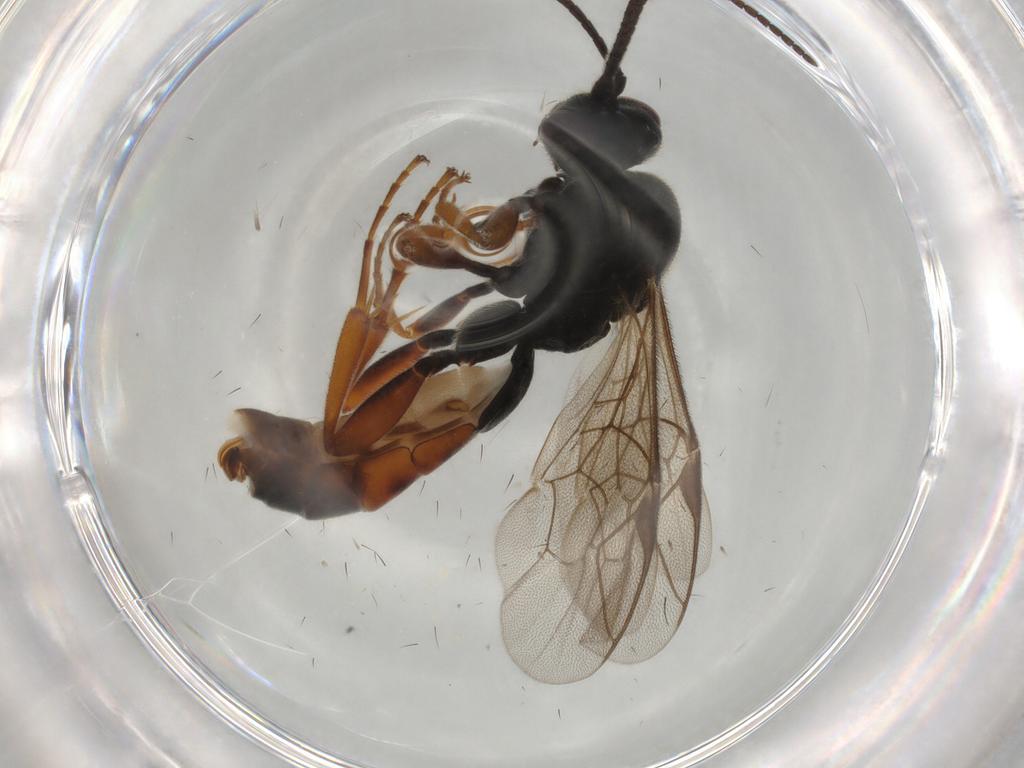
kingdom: Animalia
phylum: Arthropoda
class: Insecta
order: Hymenoptera
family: Ichneumonidae
